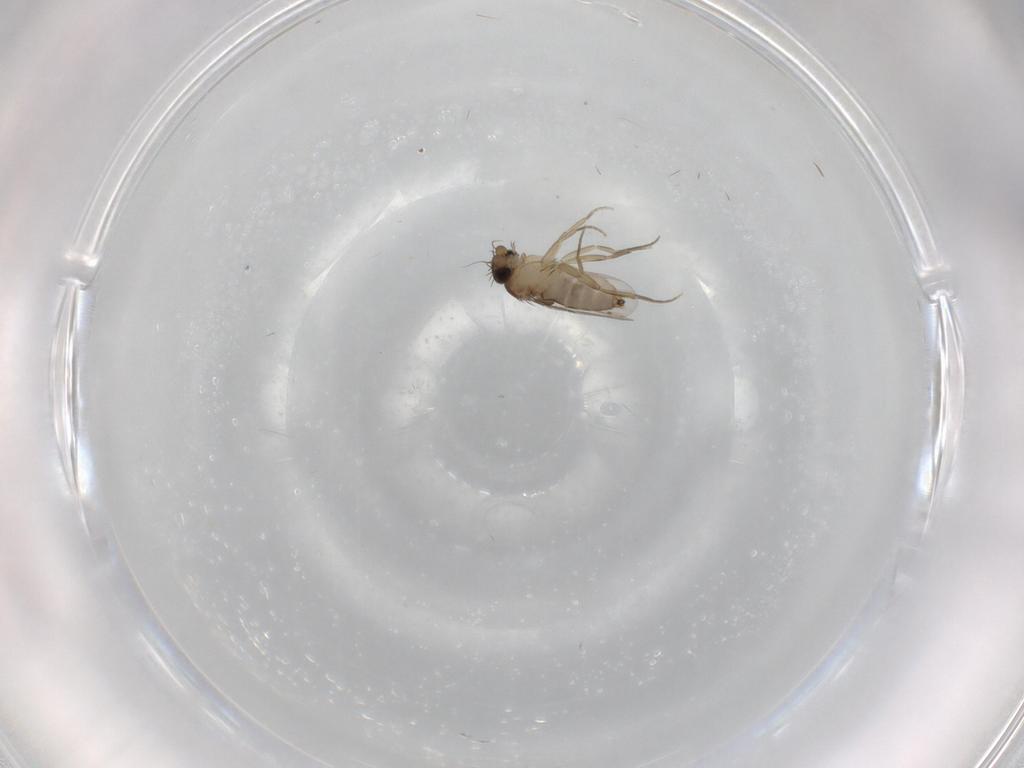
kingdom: Animalia
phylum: Arthropoda
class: Insecta
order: Diptera
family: Phoridae
